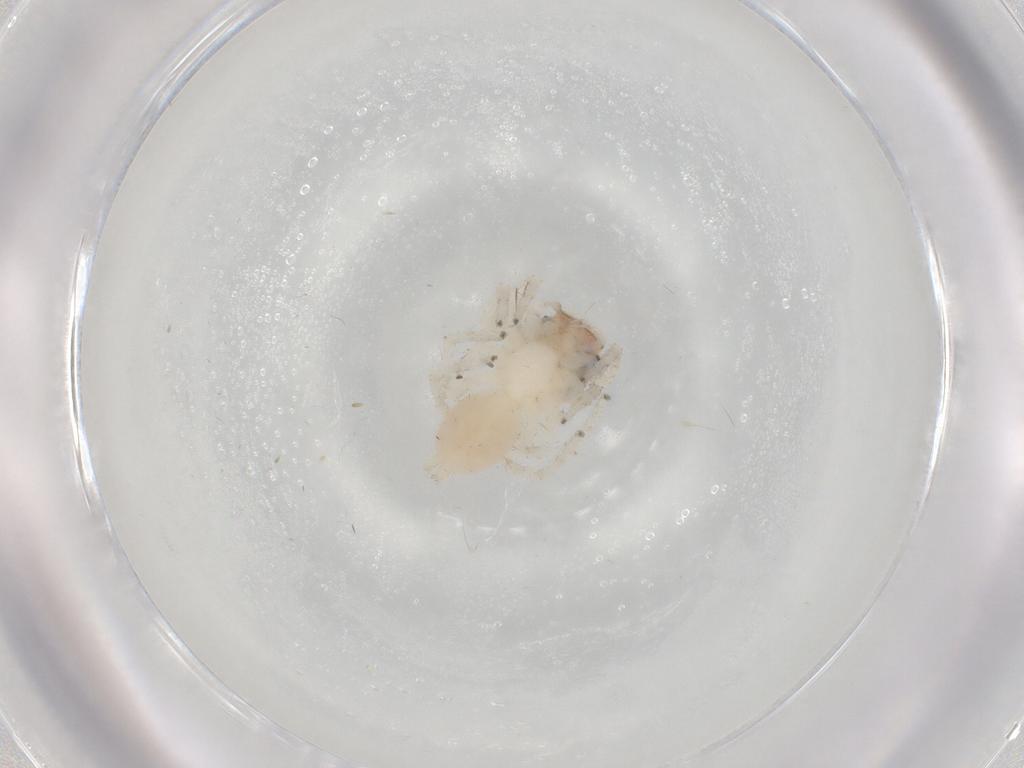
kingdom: Animalia
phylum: Arthropoda
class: Arachnida
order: Araneae
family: Salticidae
